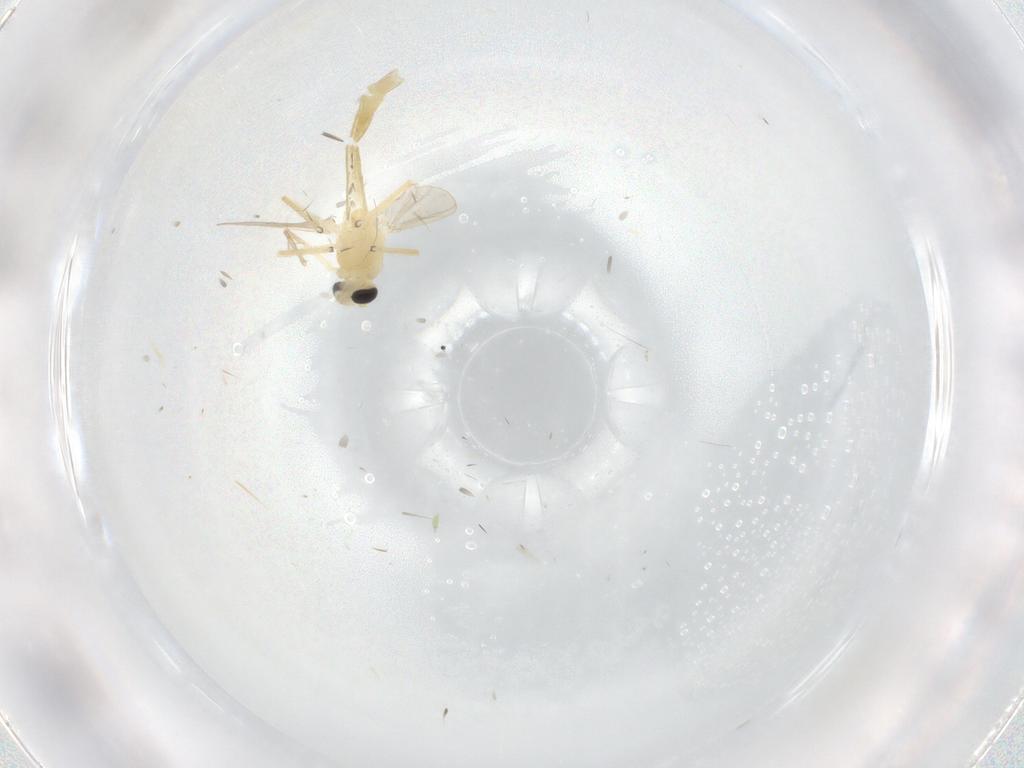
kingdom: Animalia
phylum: Arthropoda
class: Insecta
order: Diptera
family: Chironomidae
